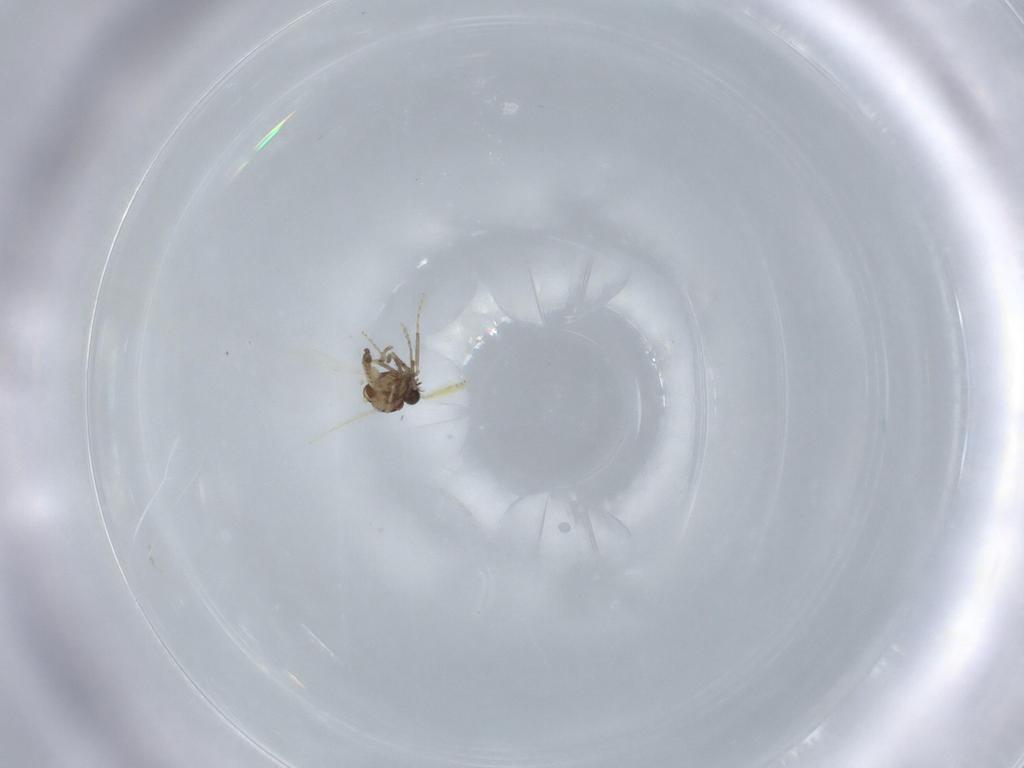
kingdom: Animalia
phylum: Arthropoda
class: Insecta
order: Diptera
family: Ceratopogonidae
